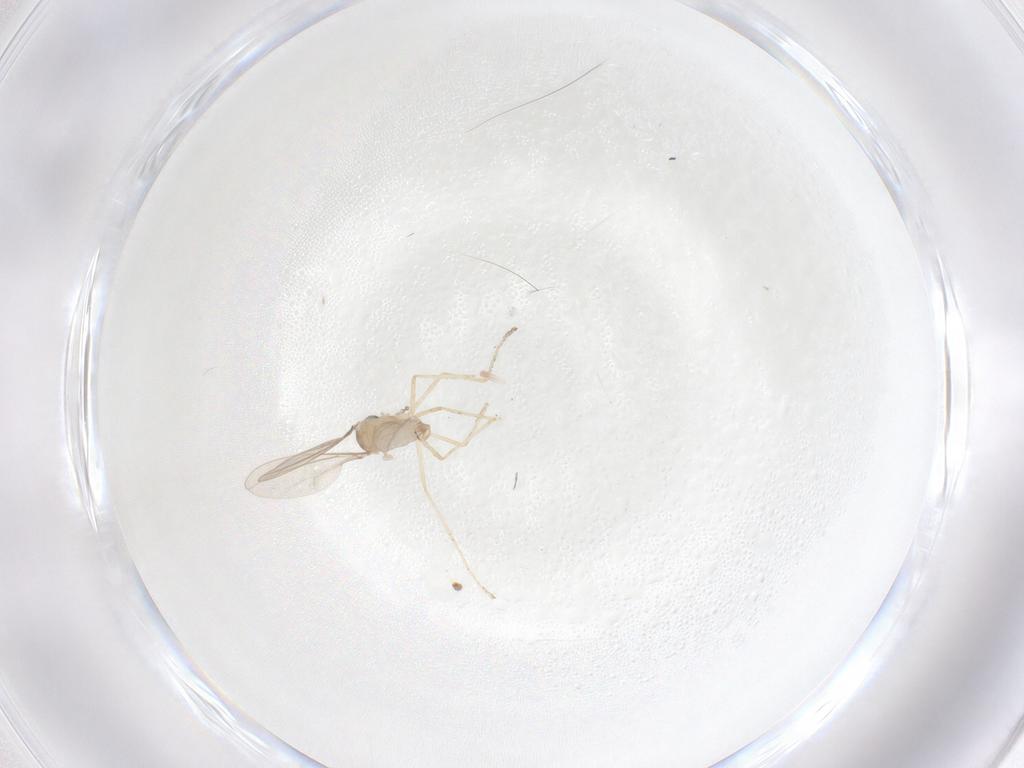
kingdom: Animalia
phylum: Arthropoda
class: Insecta
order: Diptera
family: Cecidomyiidae
